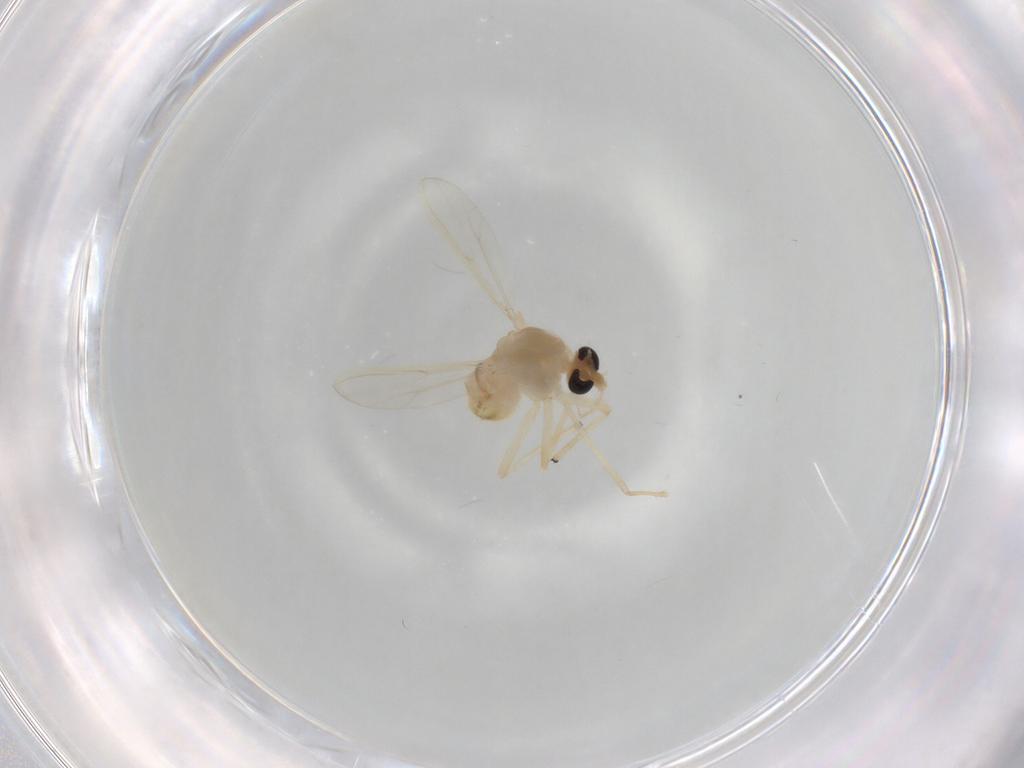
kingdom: Animalia
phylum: Arthropoda
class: Insecta
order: Diptera
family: Chironomidae
